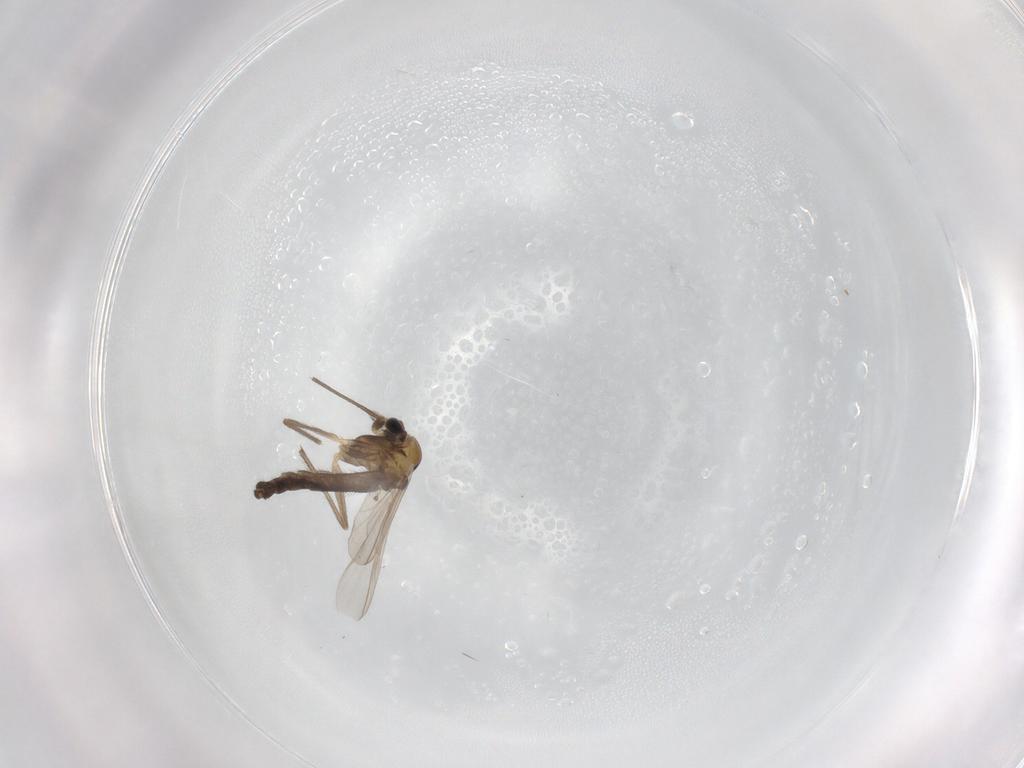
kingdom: Animalia
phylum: Arthropoda
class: Insecta
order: Diptera
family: Chironomidae
